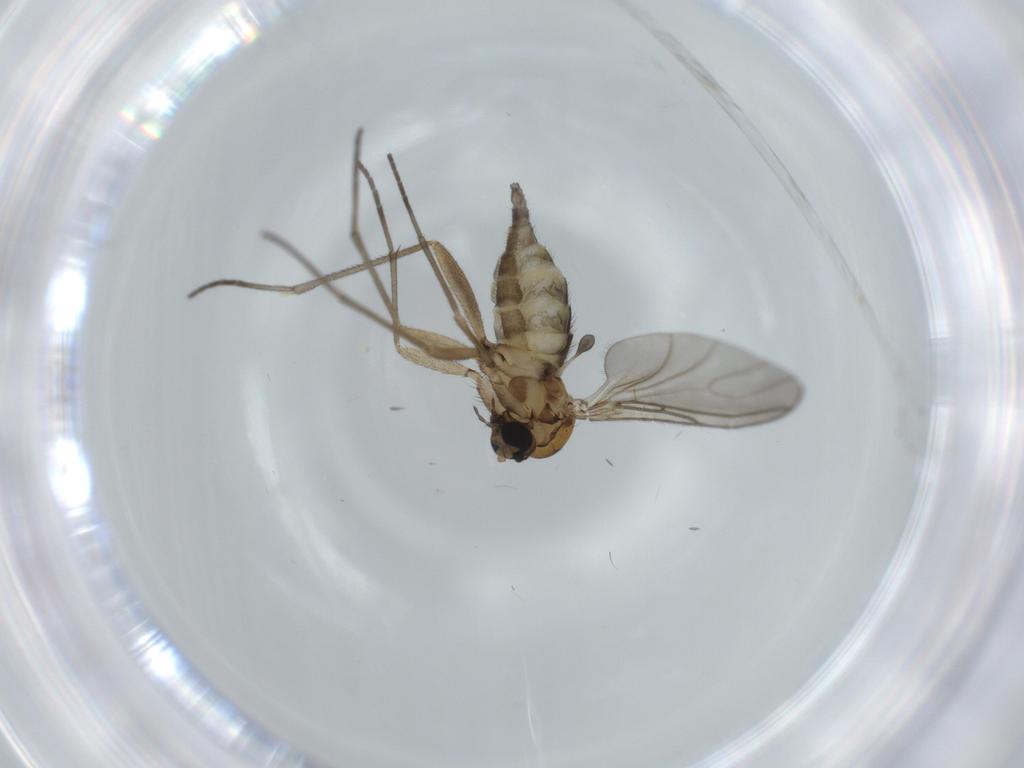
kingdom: Animalia
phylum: Arthropoda
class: Insecta
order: Diptera
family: Sciaridae
